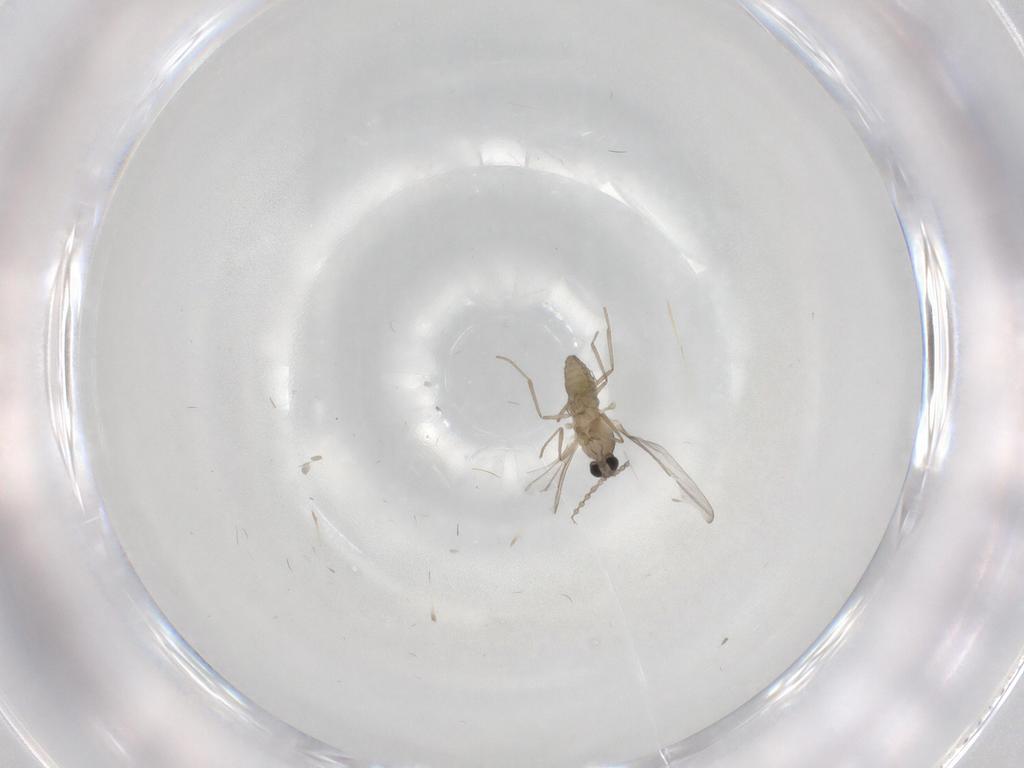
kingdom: Animalia
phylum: Arthropoda
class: Insecta
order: Diptera
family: Cecidomyiidae
